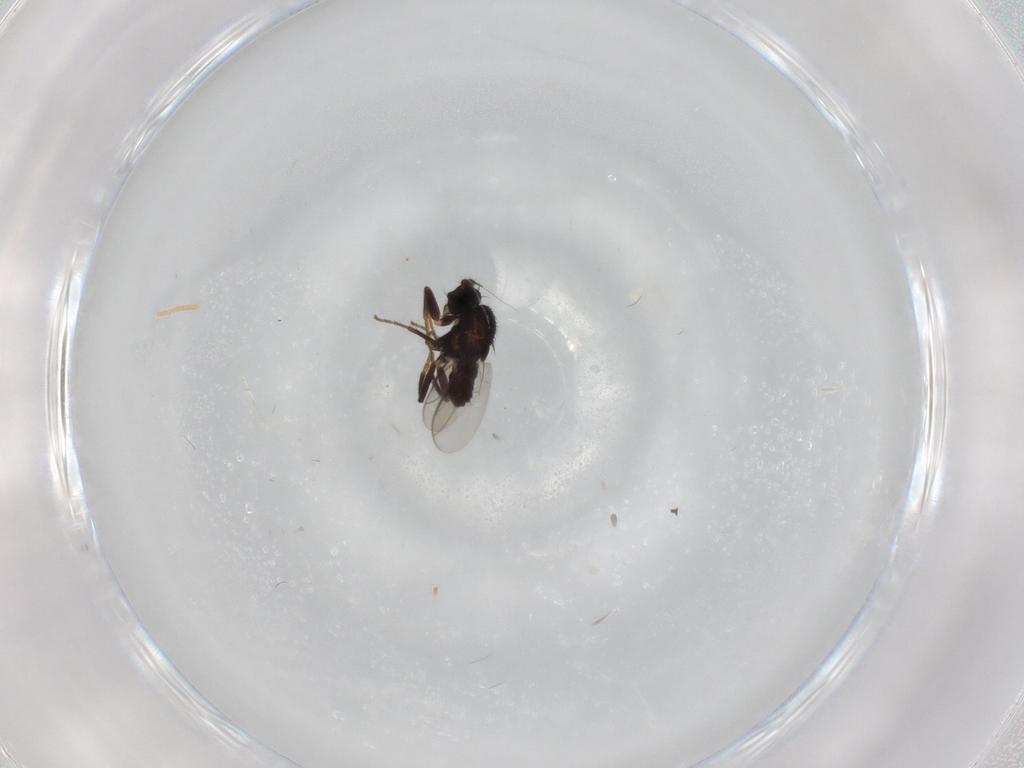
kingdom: Animalia
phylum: Arthropoda
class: Insecta
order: Diptera
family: Sphaeroceridae
